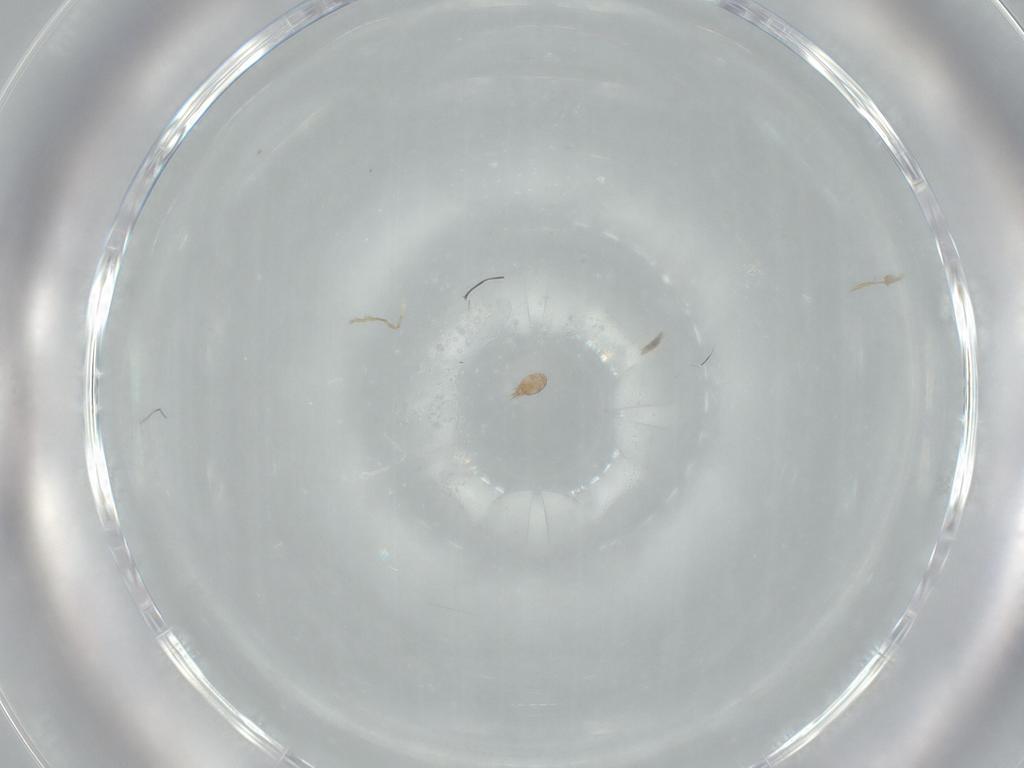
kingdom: Animalia
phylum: Arthropoda
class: Arachnida
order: Trombidiformes
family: Eupodidae
